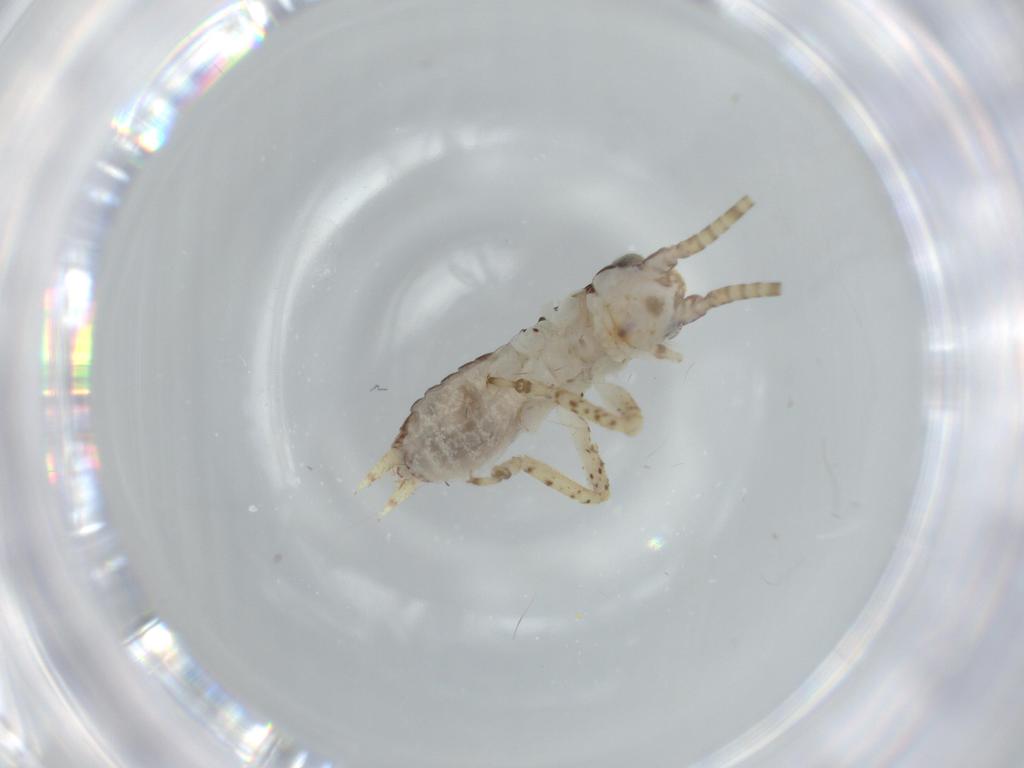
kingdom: Animalia
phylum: Arthropoda
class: Insecta
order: Orthoptera
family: Gryllidae
